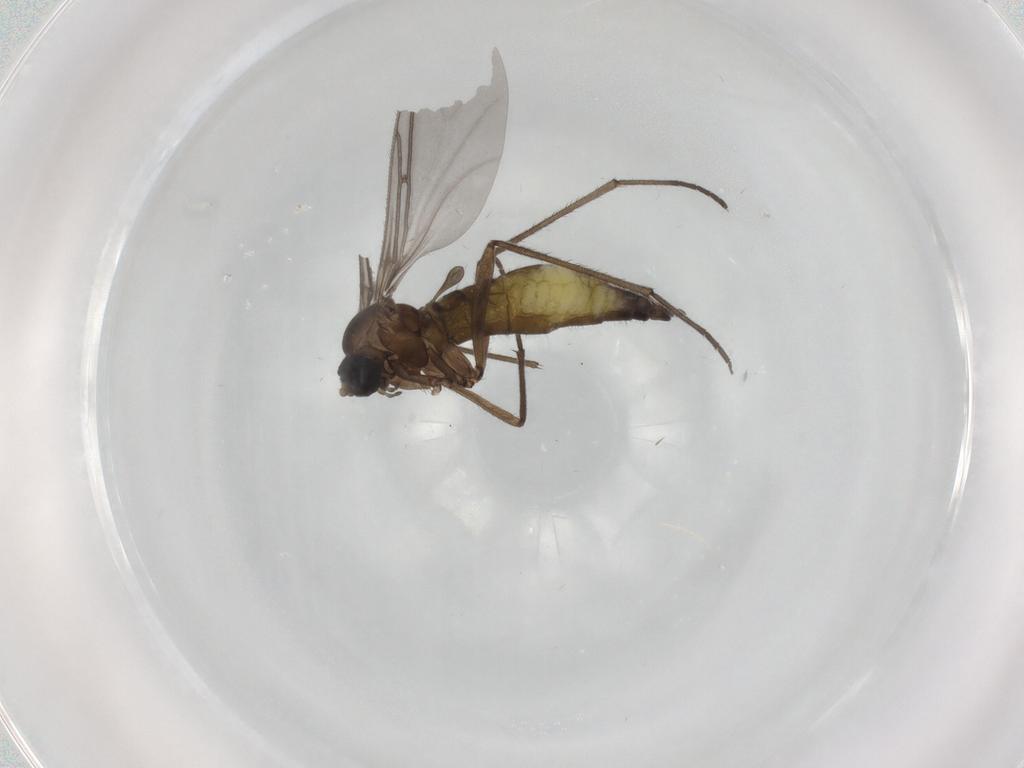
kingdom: Animalia
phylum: Arthropoda
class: Insecta
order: Diptera
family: Sciaridae
